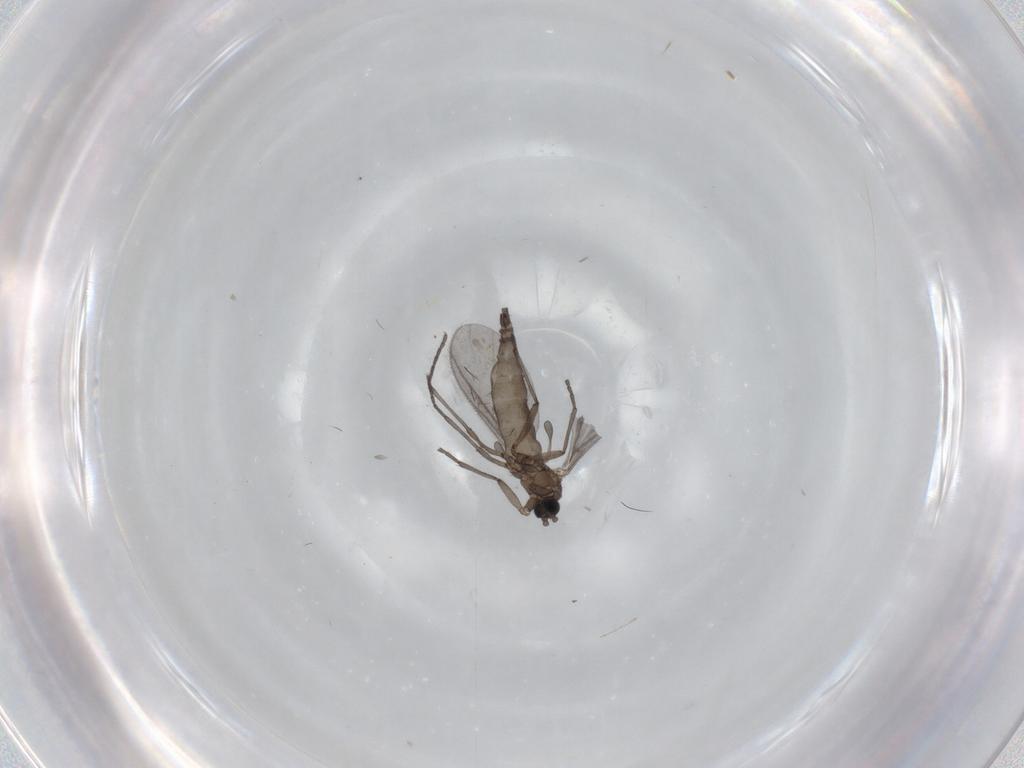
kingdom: Animalia
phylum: Arthropoda
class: Insecta
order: Diptera
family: Sciaridae
